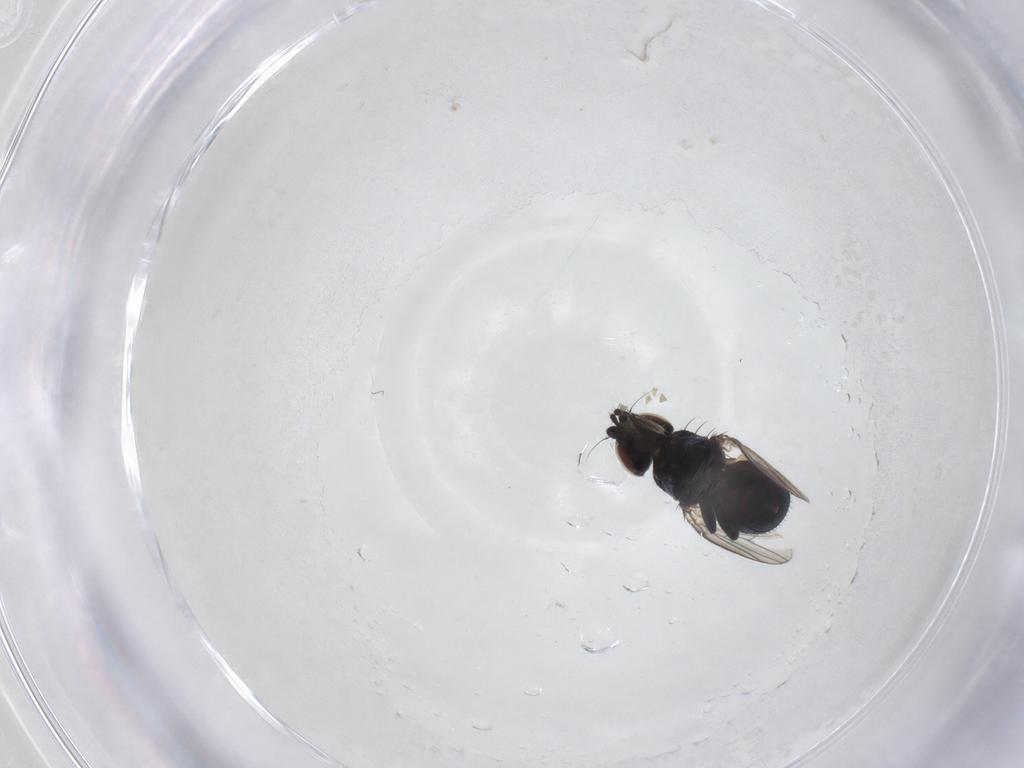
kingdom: Animalia
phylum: Arthropoda
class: Insecta
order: Diptera
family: Milichiidae
